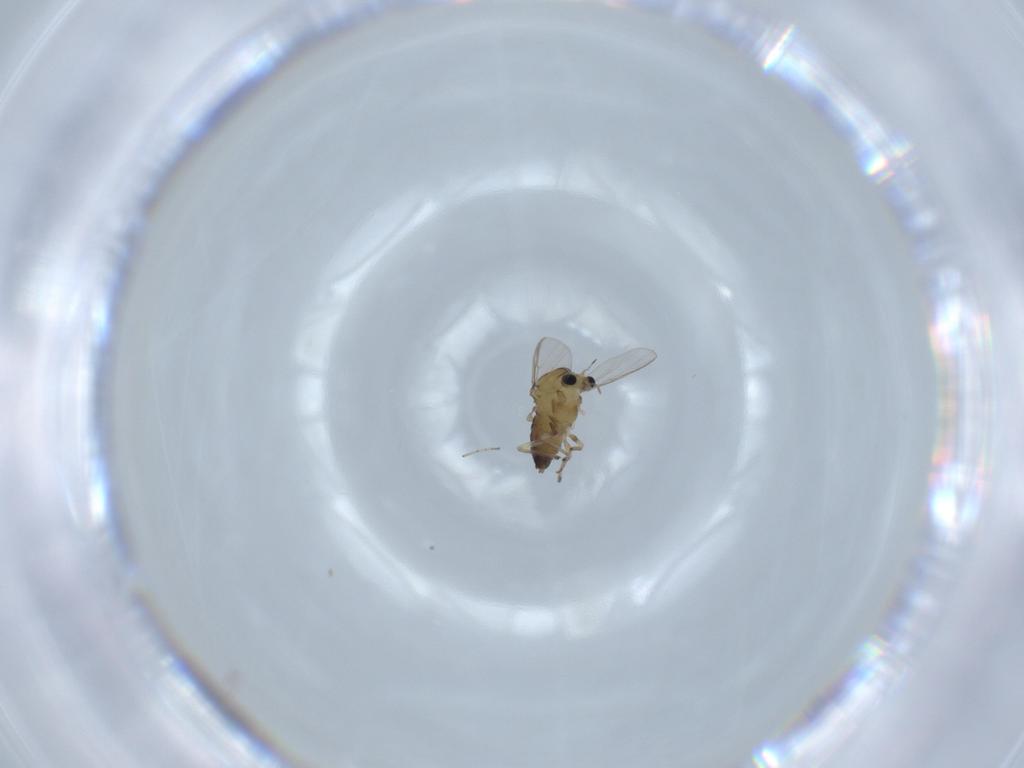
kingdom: Animalia
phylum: Arthropoda
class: Insecta
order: Diptera
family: Chironomidae
